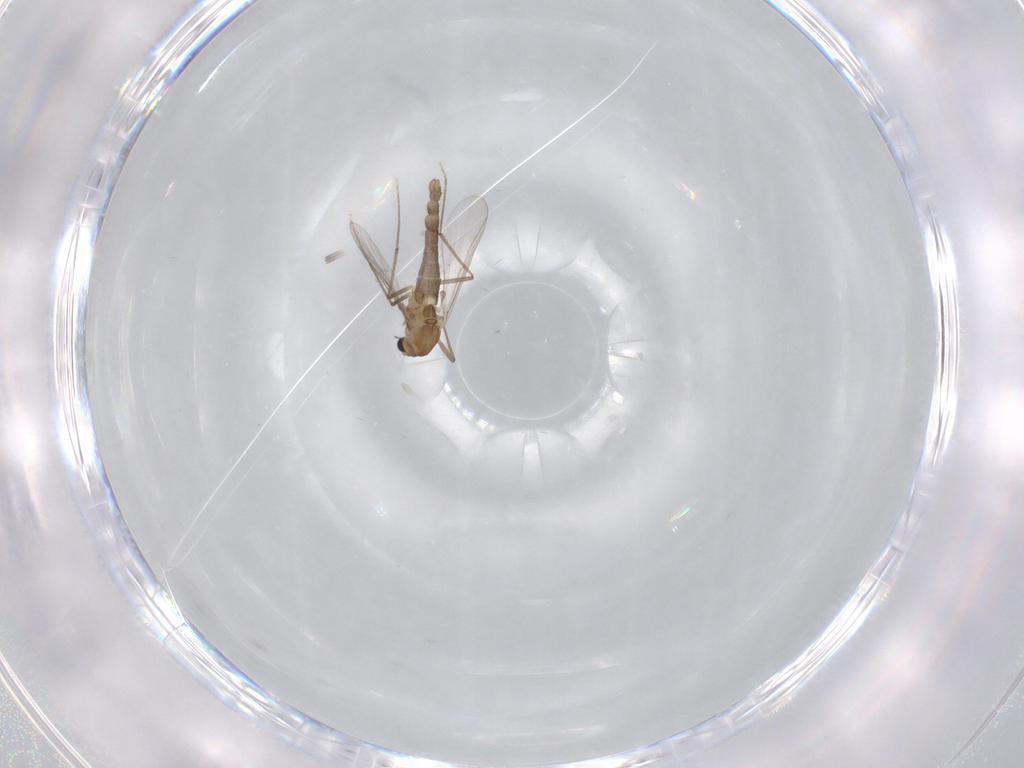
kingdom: Animalia
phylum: Arthropoda
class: Insecta
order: Diptera
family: Chironomidae
